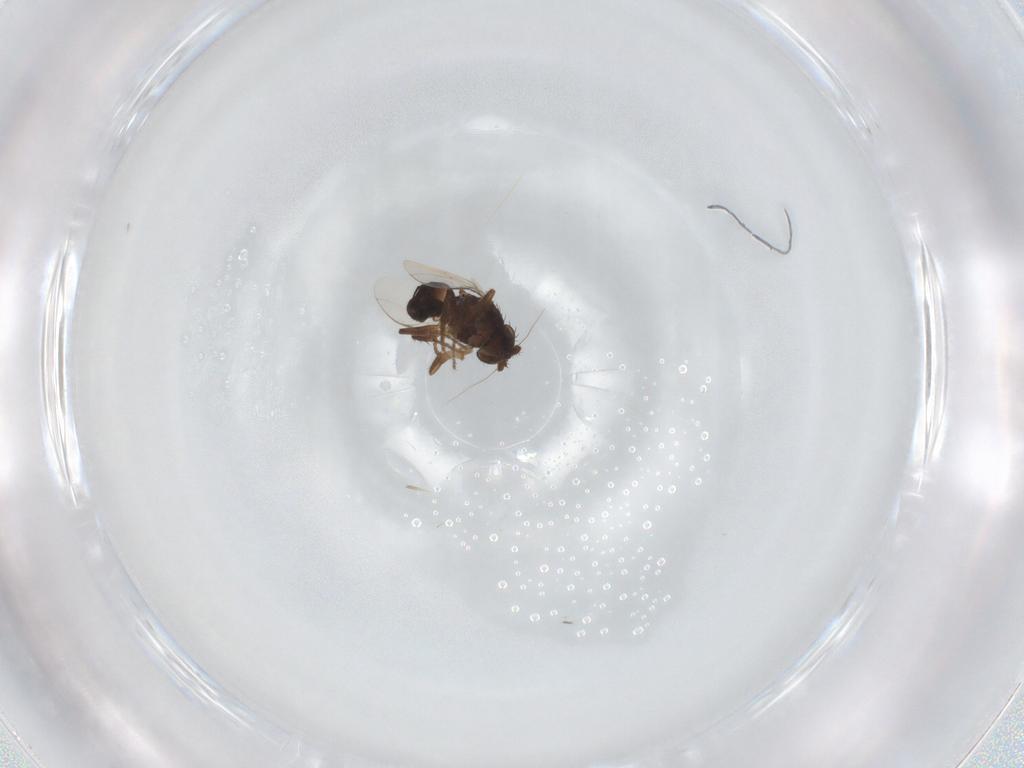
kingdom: Animalia
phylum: Arthropoda
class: Insecta
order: Diptera
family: Sphaeroceridae
